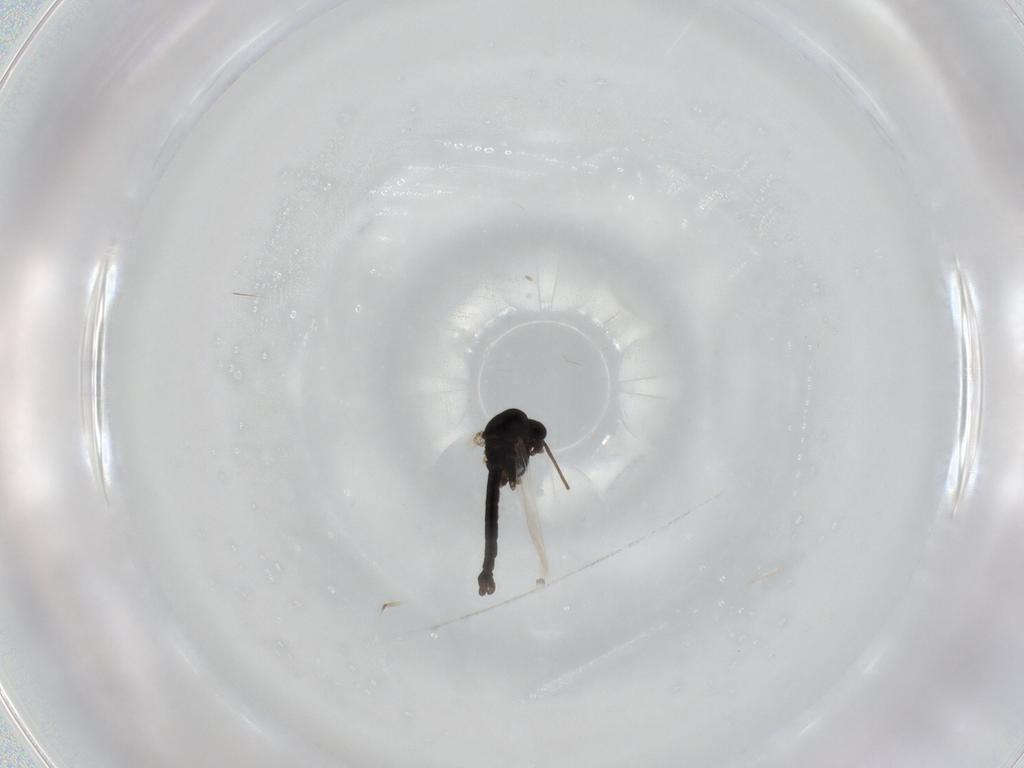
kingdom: Animalia
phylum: Arthropoda
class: Insecta
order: Diptera
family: Chironomidae
